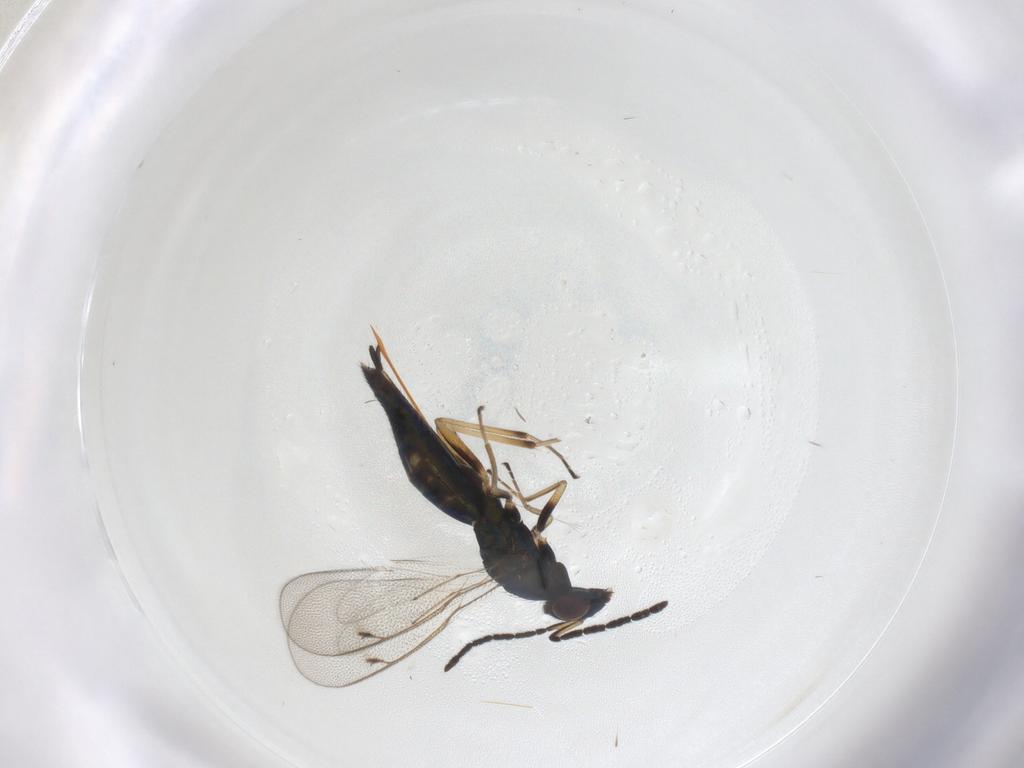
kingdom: Animalia
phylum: Arthropoda
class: Insecta
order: Hymenoptera
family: Eulophidae
